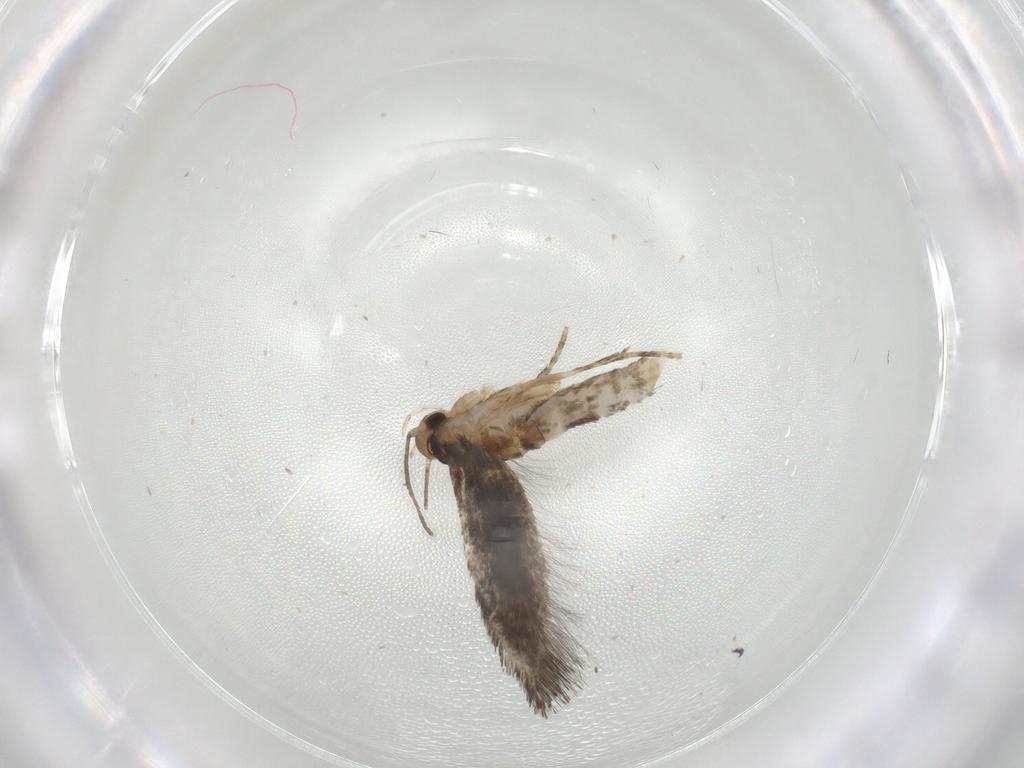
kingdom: Animalia
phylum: Arthropoda
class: Insecta
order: Lepidoptera
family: Elachistidae
